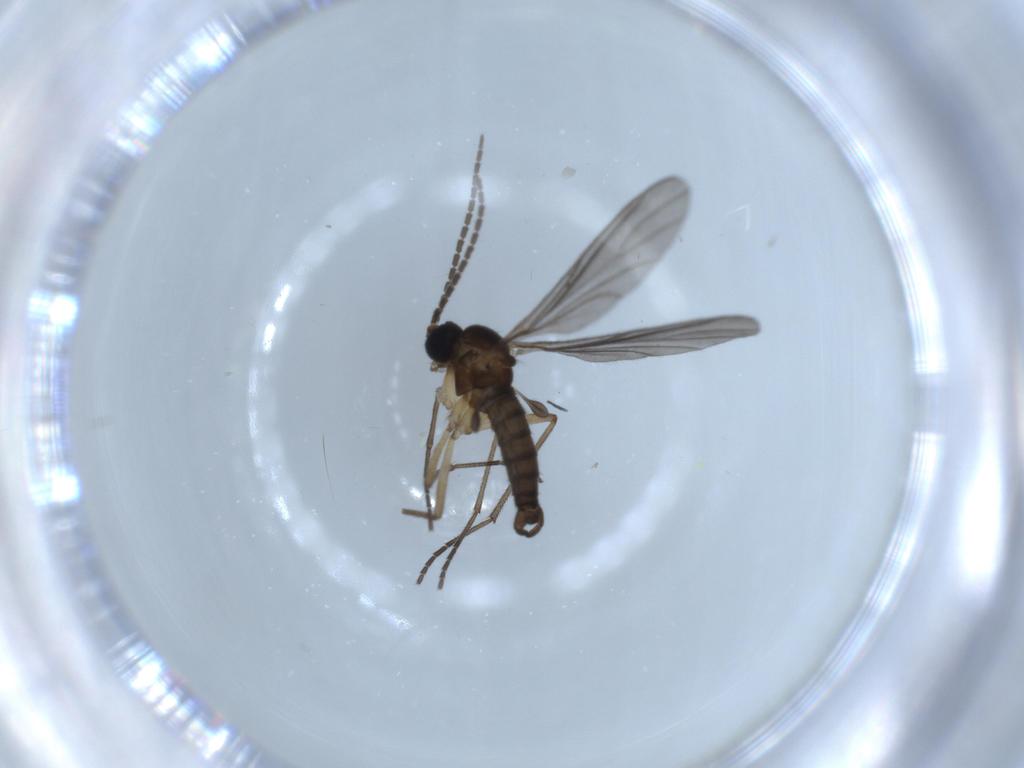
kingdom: Animalia
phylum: Arthropoda
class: Insecta
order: Diptera
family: Sciaridae
